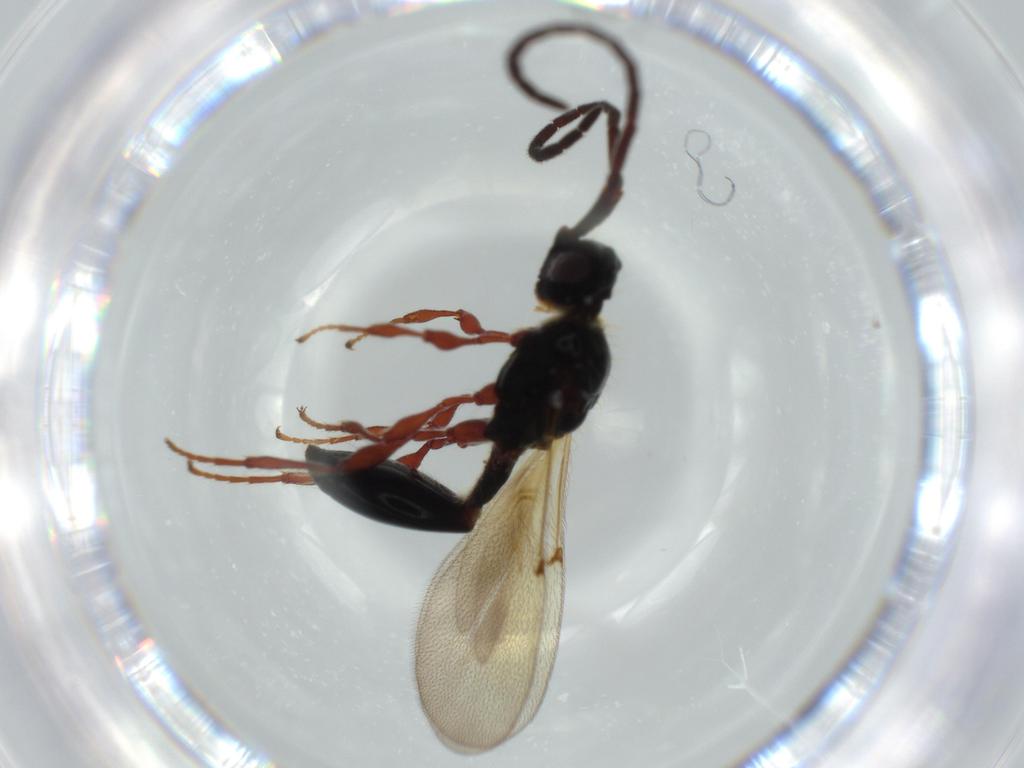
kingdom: Animalia
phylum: Arthropoda
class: Insecta
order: Hymenoptera
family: Diapriidae
